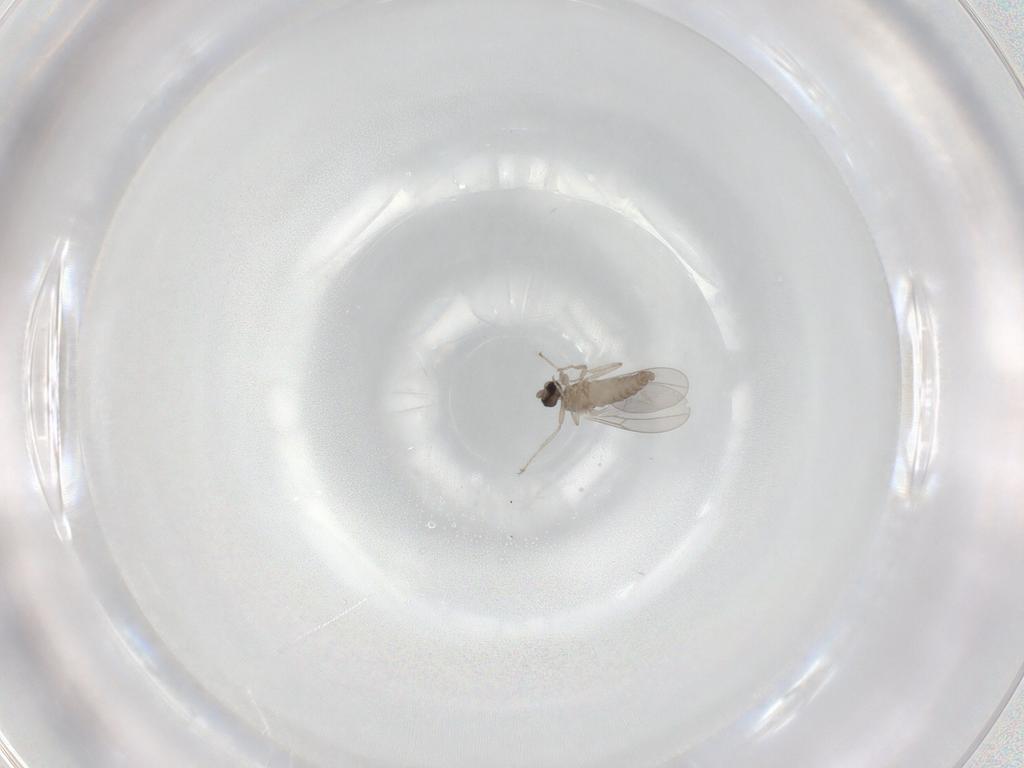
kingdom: Animalia
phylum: Arthropoda
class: Insecta
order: Diptera
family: Cecidomyiidae
